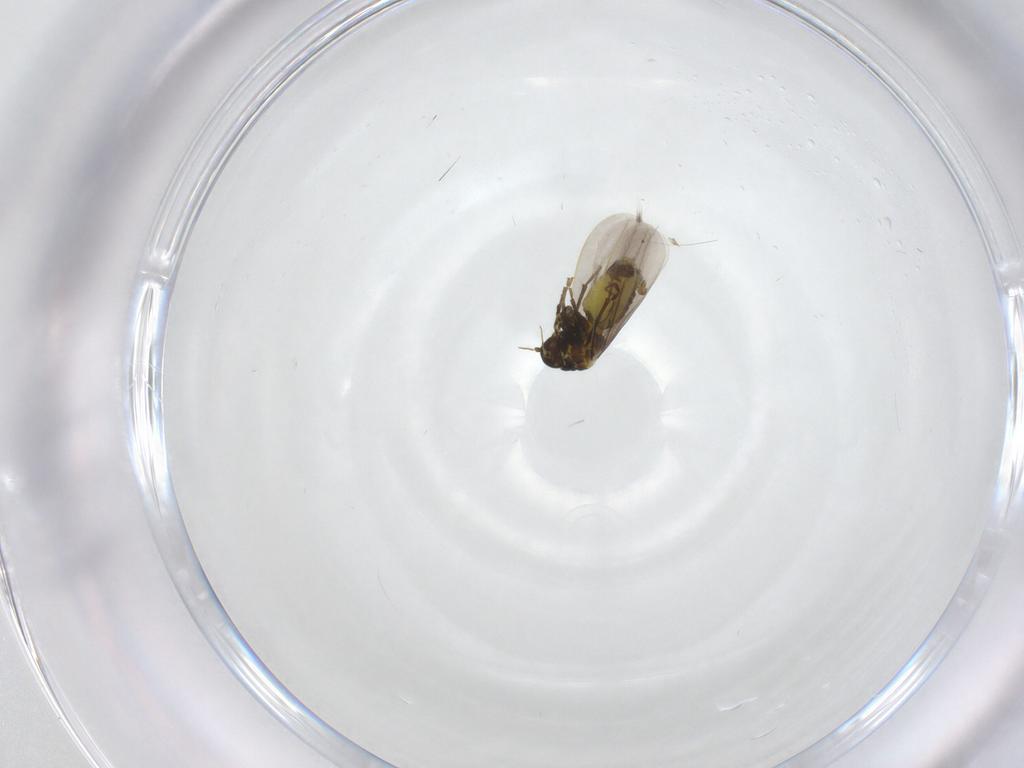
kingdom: Animalia
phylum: Arthropoda
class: Insecta
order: Hemiptera
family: Aleyrodidae
